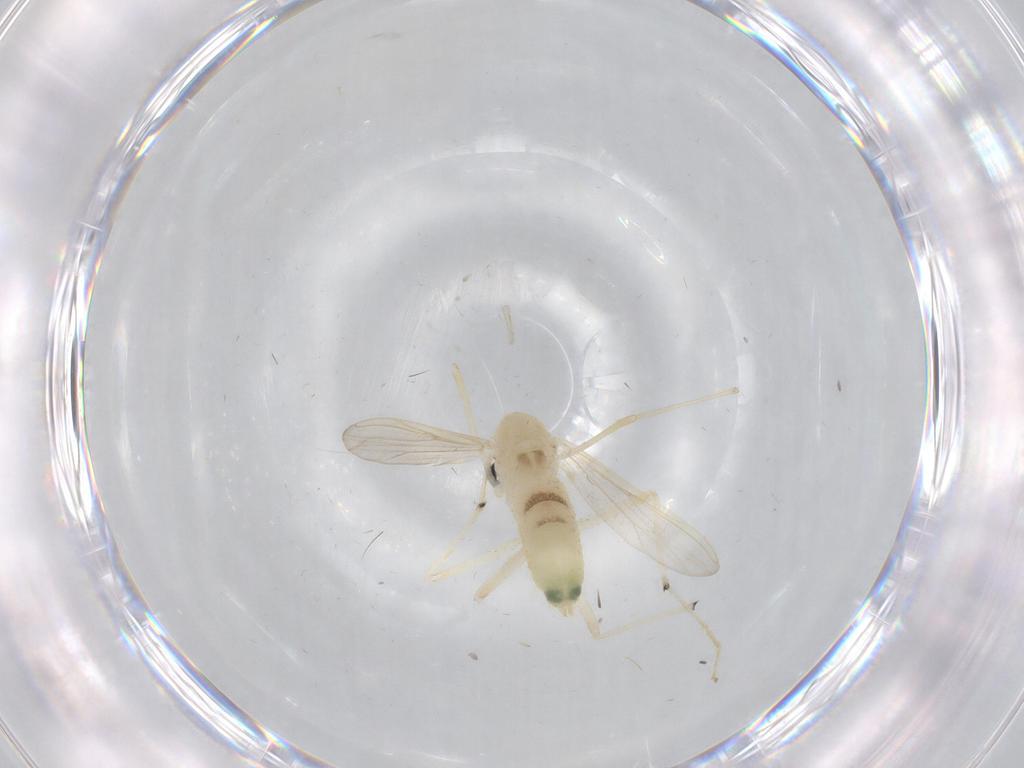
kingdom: Animalia
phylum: Arthropoda
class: Insecta
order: Diptera
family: Chironomidae
